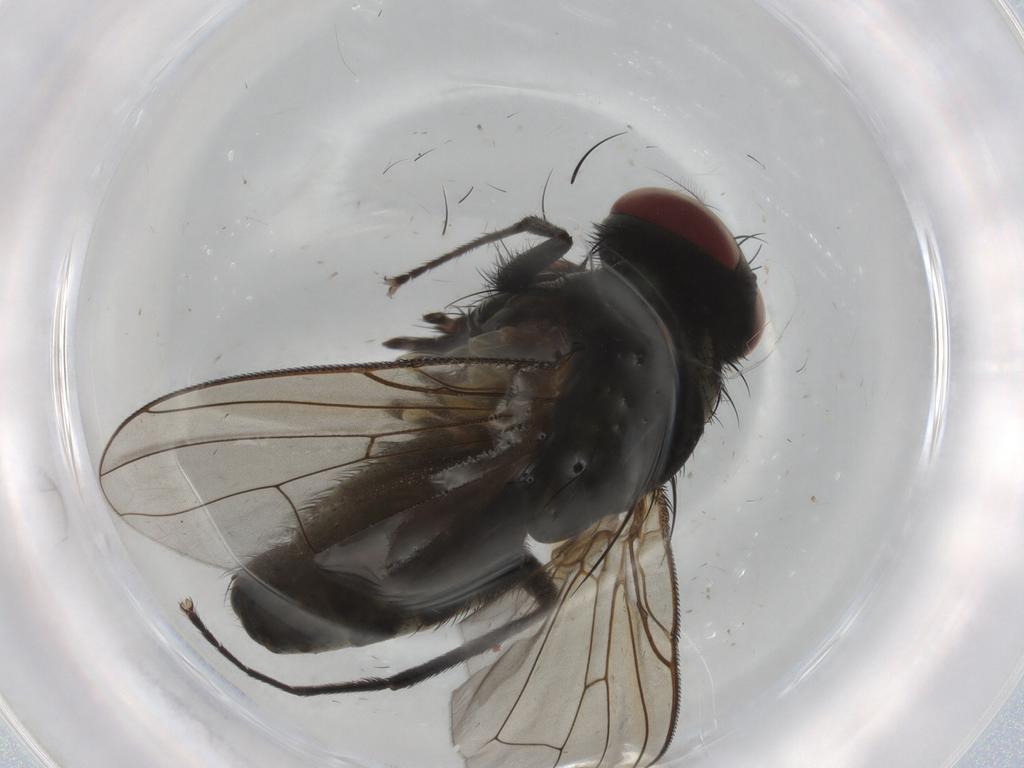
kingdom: Animalia
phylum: Arthropoda
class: Insecta
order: Diptera
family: Muscidae
